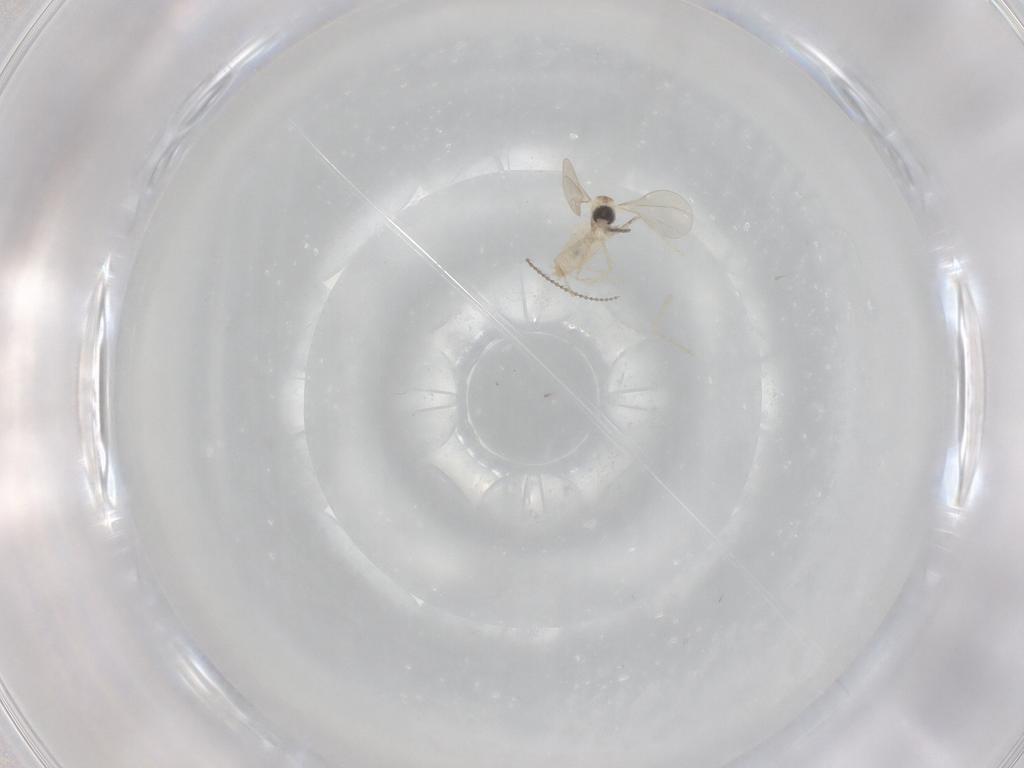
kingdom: Animalia
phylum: Arthropoda
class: Insecta
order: Diptera
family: Cecidomyiidae
